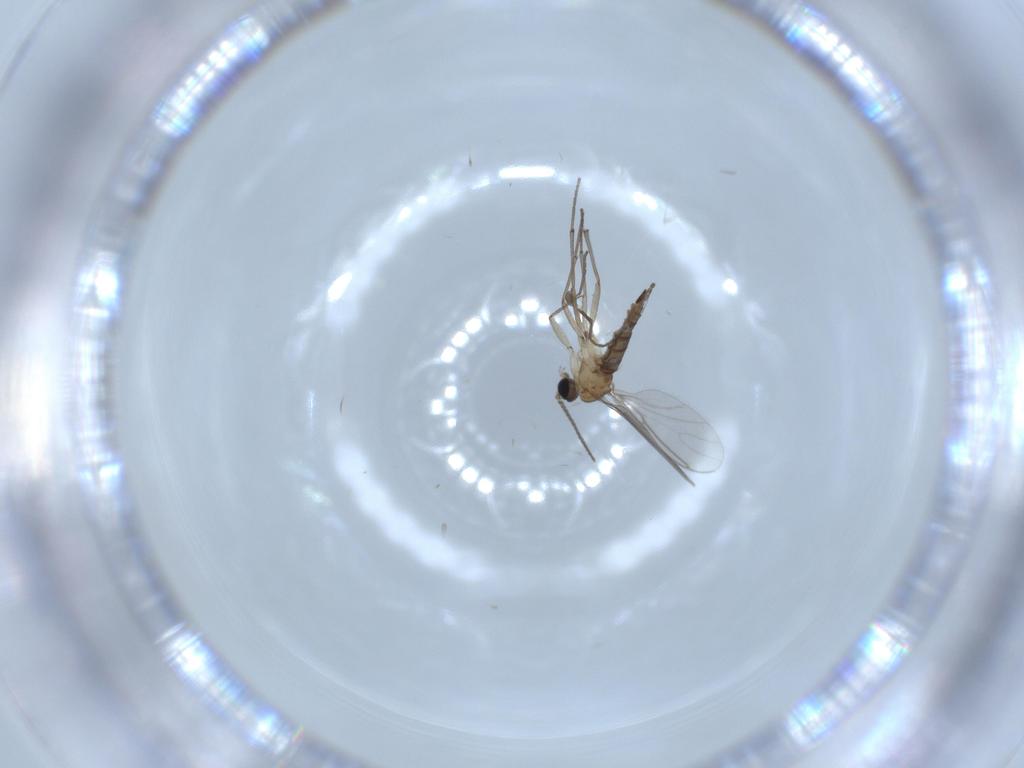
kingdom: Animalia
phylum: Arthropoda
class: Insecta
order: Diptera
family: Sciaridae
